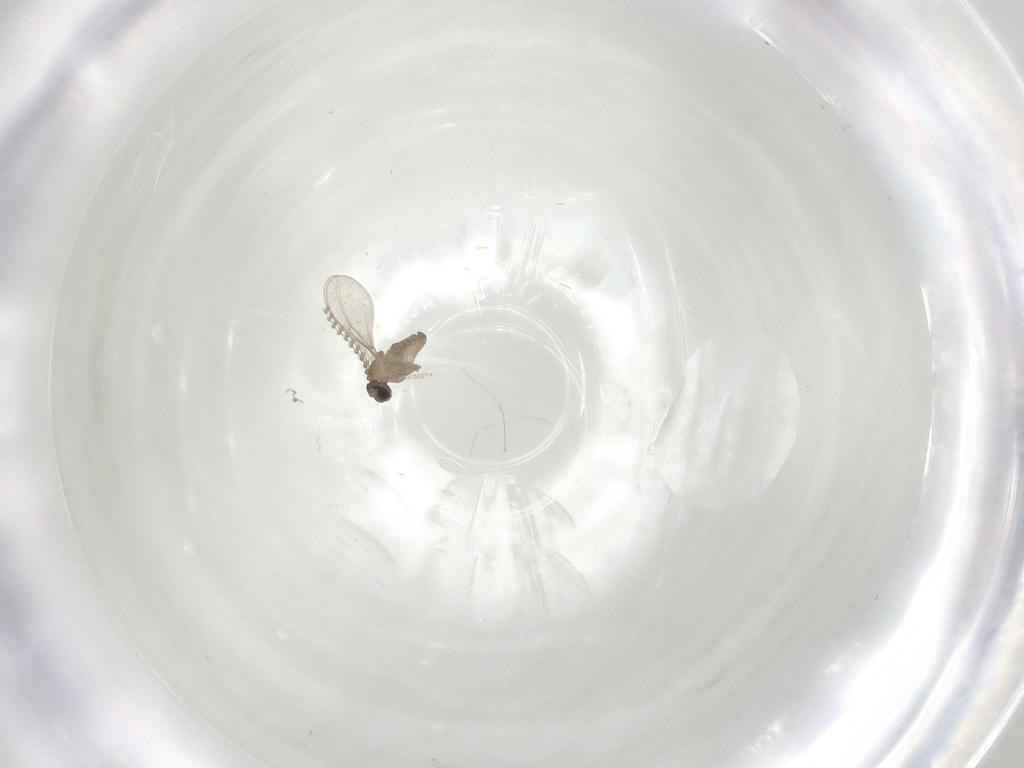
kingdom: Animalia
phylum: Arthropoda
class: Insecta
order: Diptera
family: Cecidomyiidae
